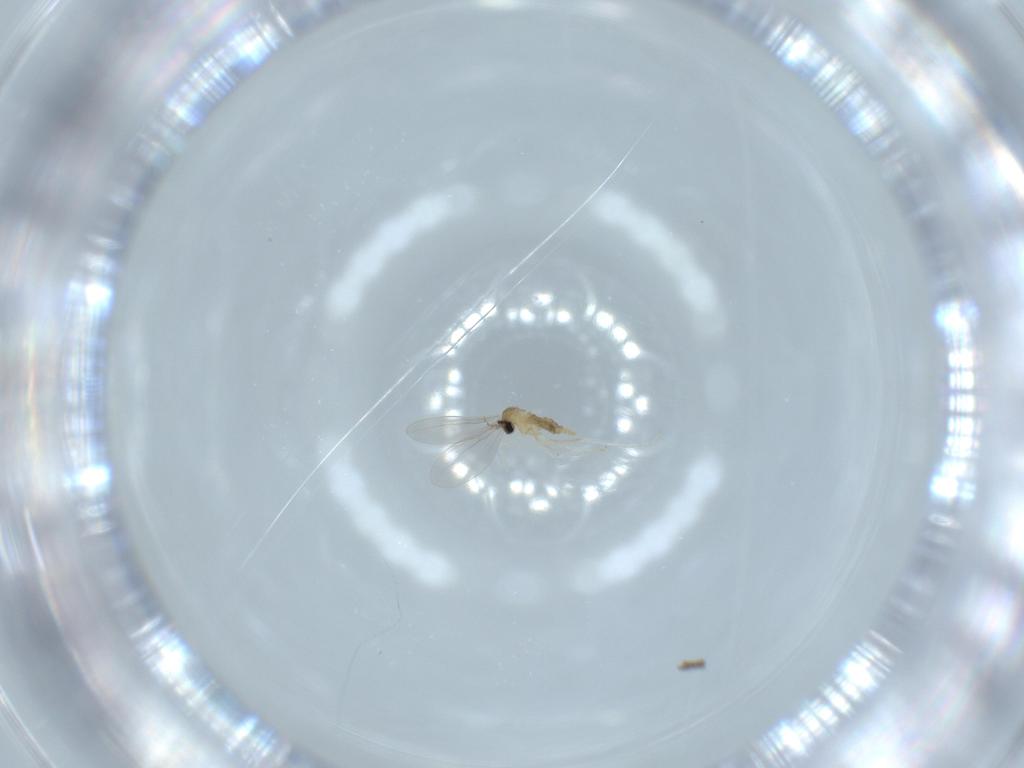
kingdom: Animalia
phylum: Arthropoda
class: Insecta
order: Diptera
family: Cecidomyiidae
